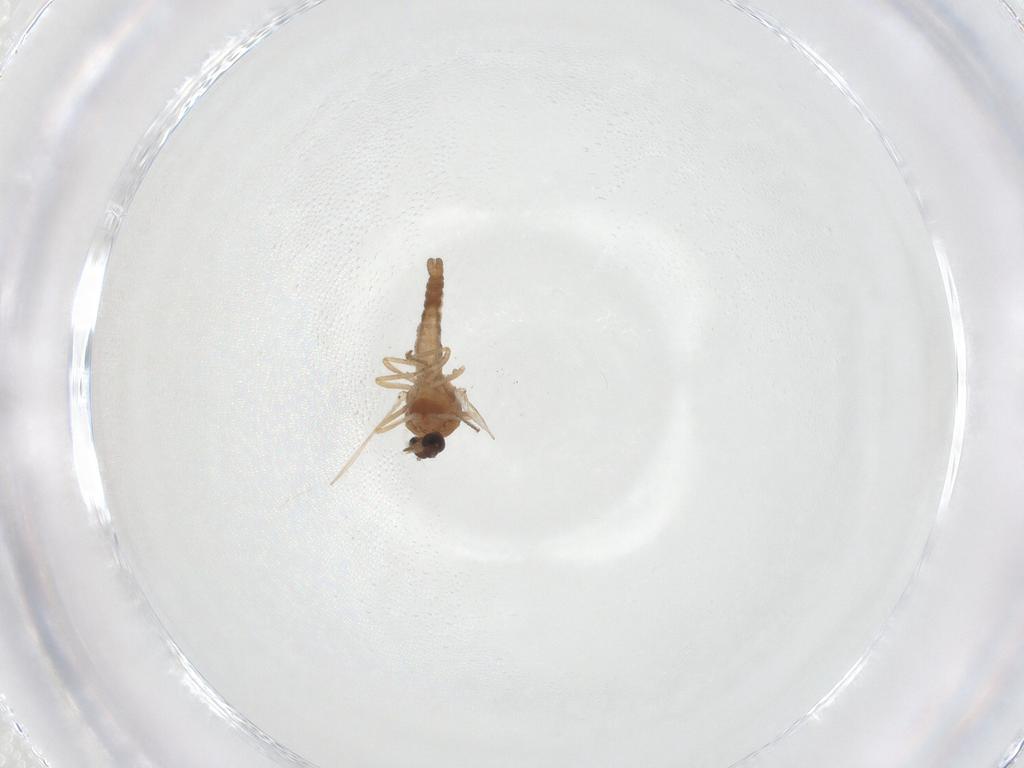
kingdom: Animalia
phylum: Arthropoda
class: Insecta
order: Diptera
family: Ceratopogonidae
